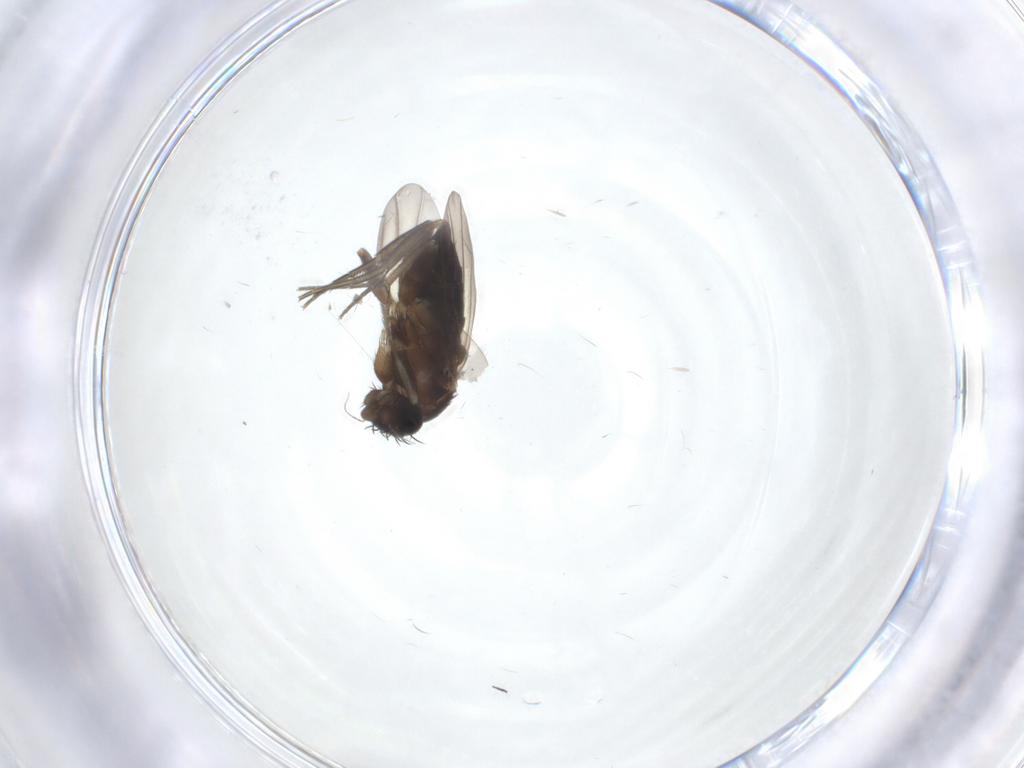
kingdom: Animalia
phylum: Arthropoda
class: Insecta
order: Diptera
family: Phoridae
